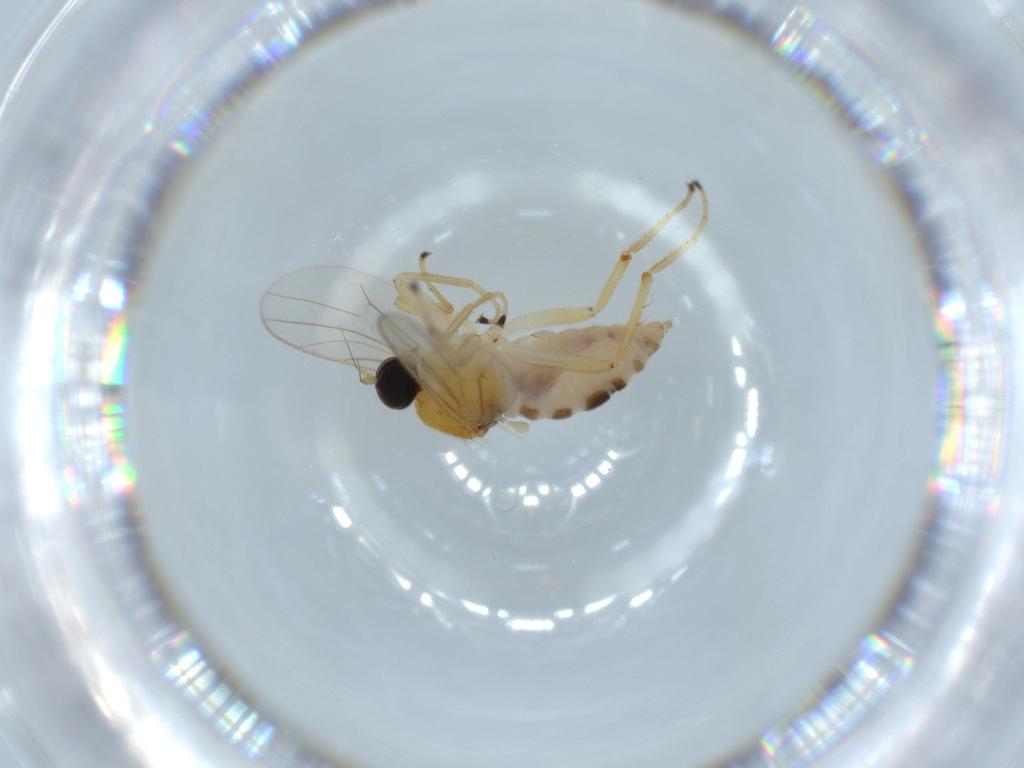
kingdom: Animalia
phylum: Arthropoda
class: Insecta
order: Diptera
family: Hybotidae
